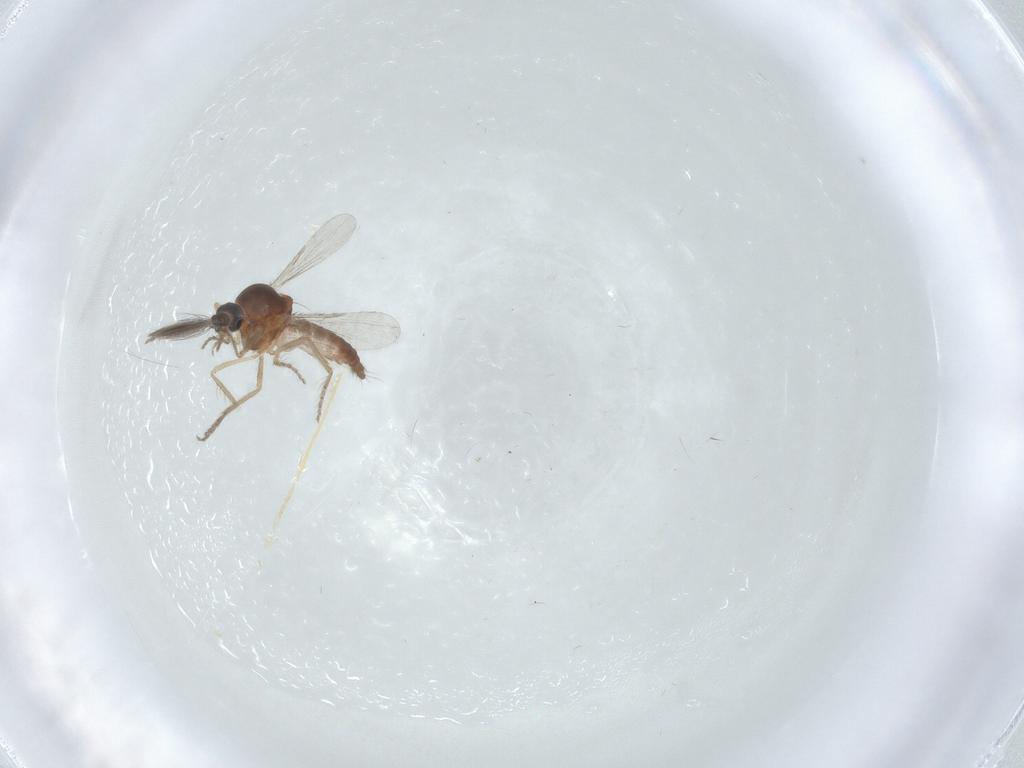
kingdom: Animalia
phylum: Arthropoda
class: Insecta
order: Diptera
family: Ceratopogonidae
